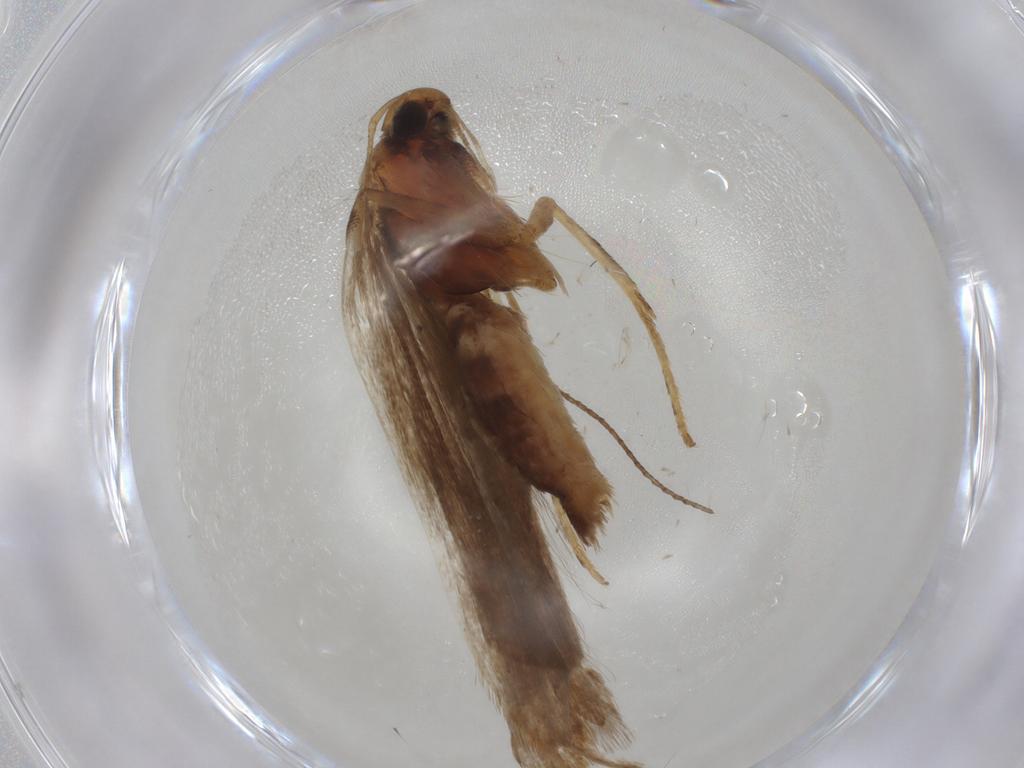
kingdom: Animalia
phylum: Arthropoda
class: Insecta
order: Lepidoptera
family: Gelechiidae
